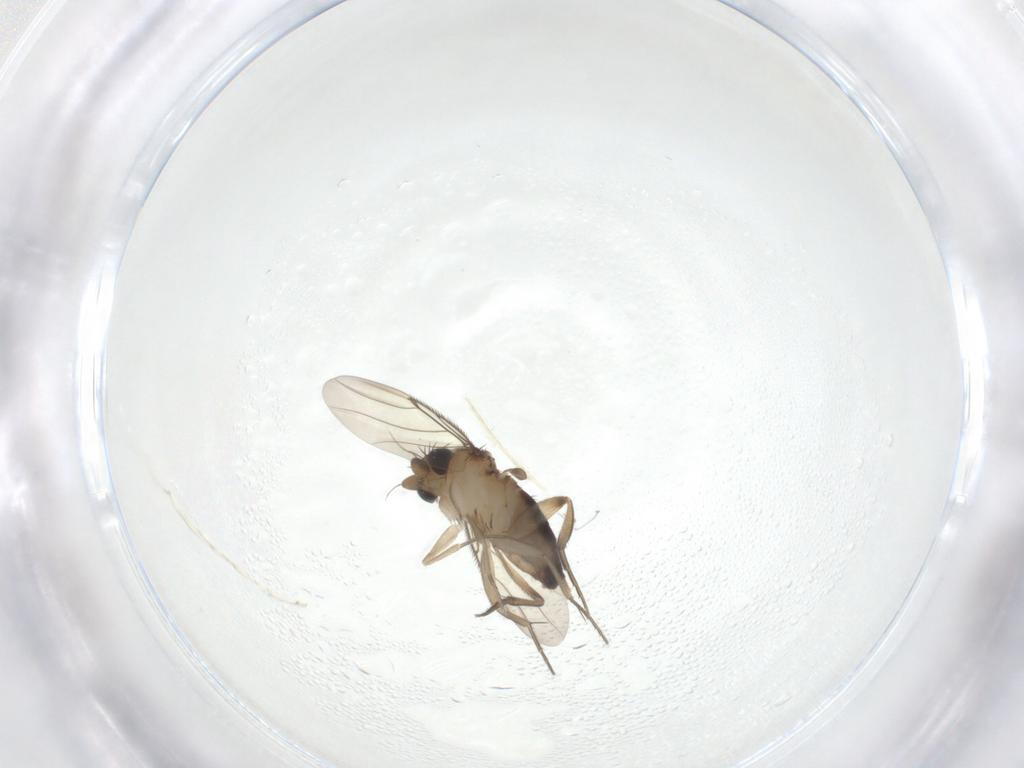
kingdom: Animalia
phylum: Arthropoda
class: Insecta
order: Diptera
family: Phoridae
